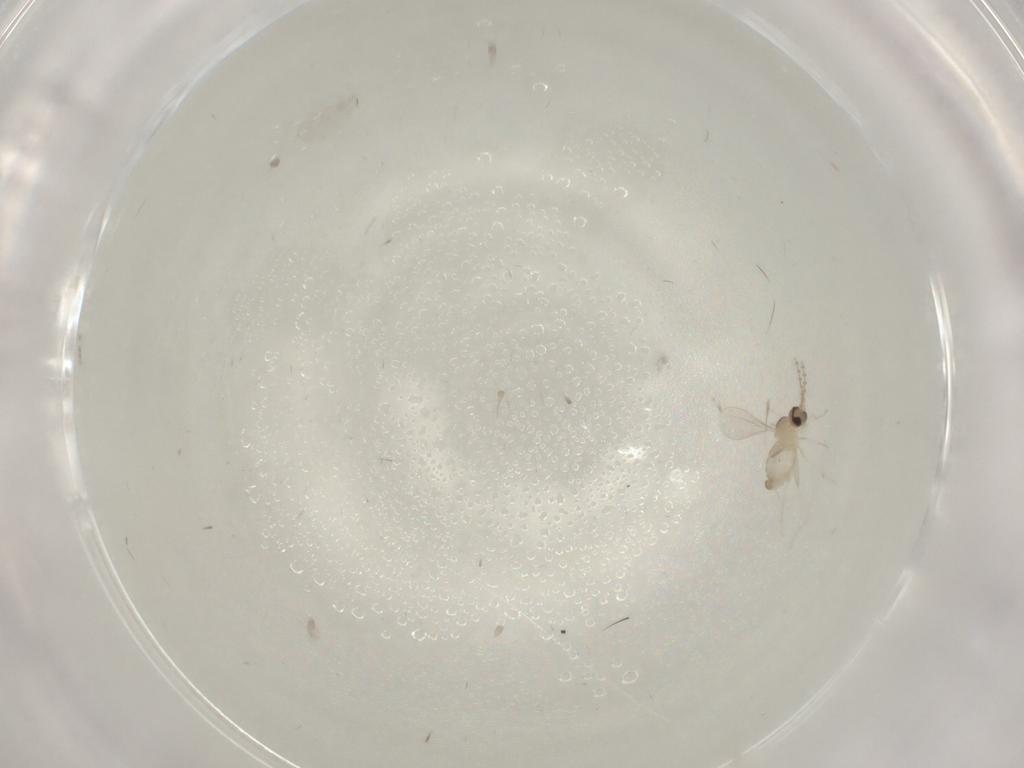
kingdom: Animalia
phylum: Arthropoda
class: Insecta
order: Diptera
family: Cecidomyiidae
